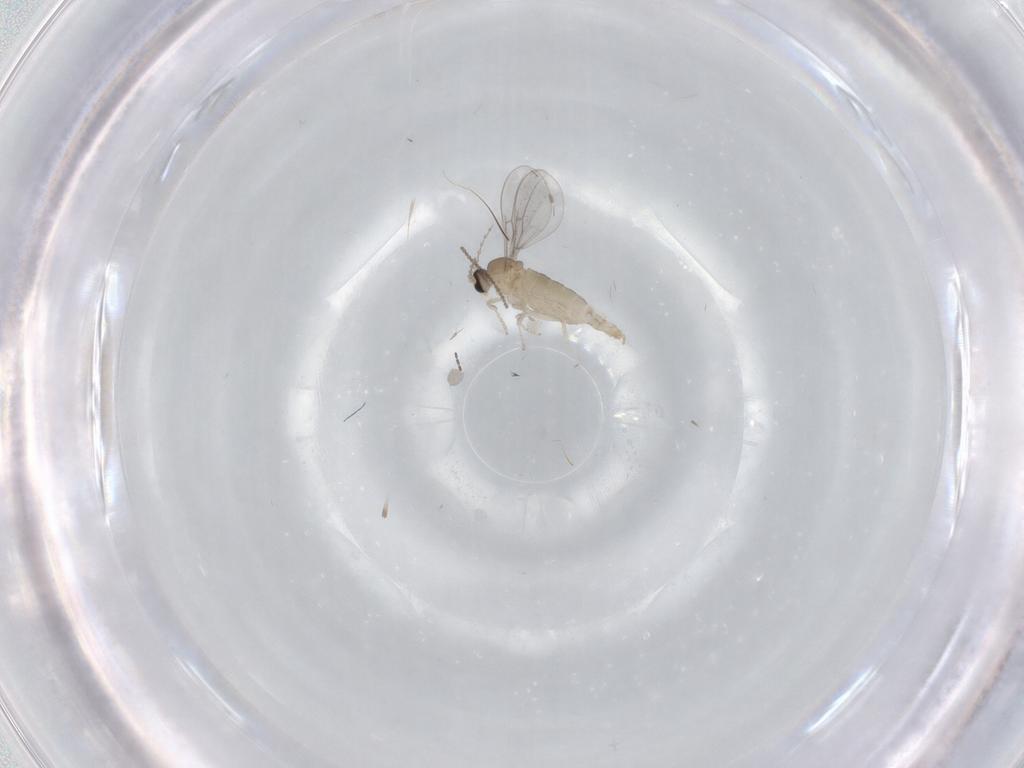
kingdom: Animalia
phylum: Arthropoda
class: Insecta
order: Diptera
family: Cecidomyiidae
